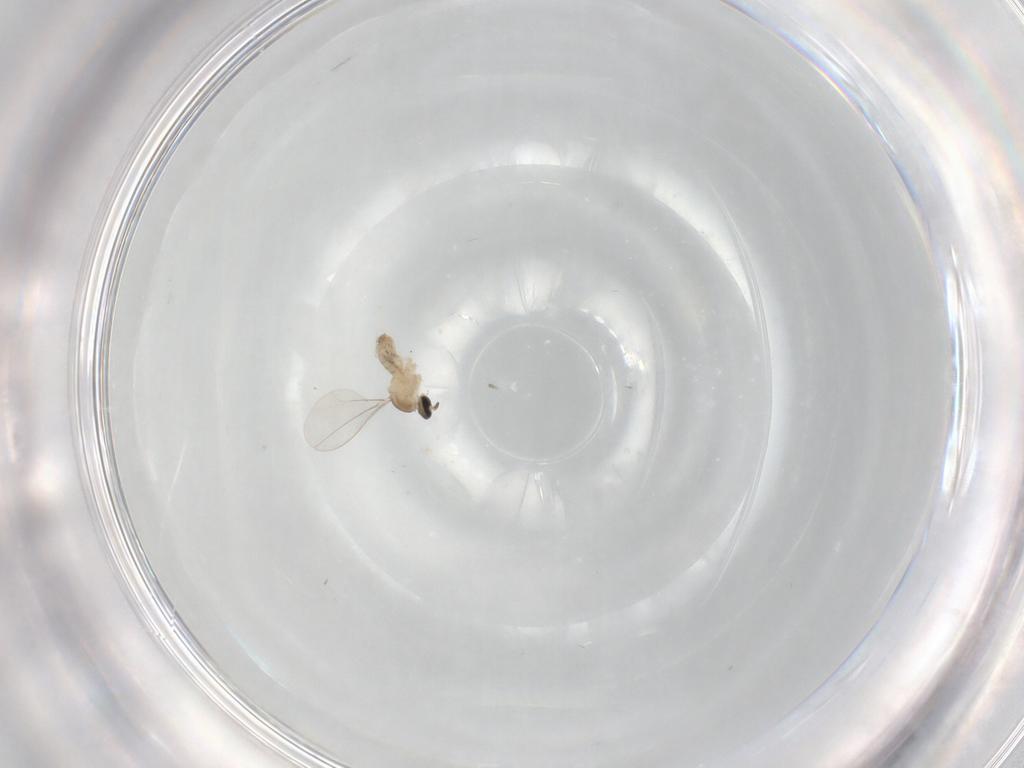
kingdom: Animalia
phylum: Arthropoda
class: Insecta
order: Diptera
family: Cecidomyiidae
